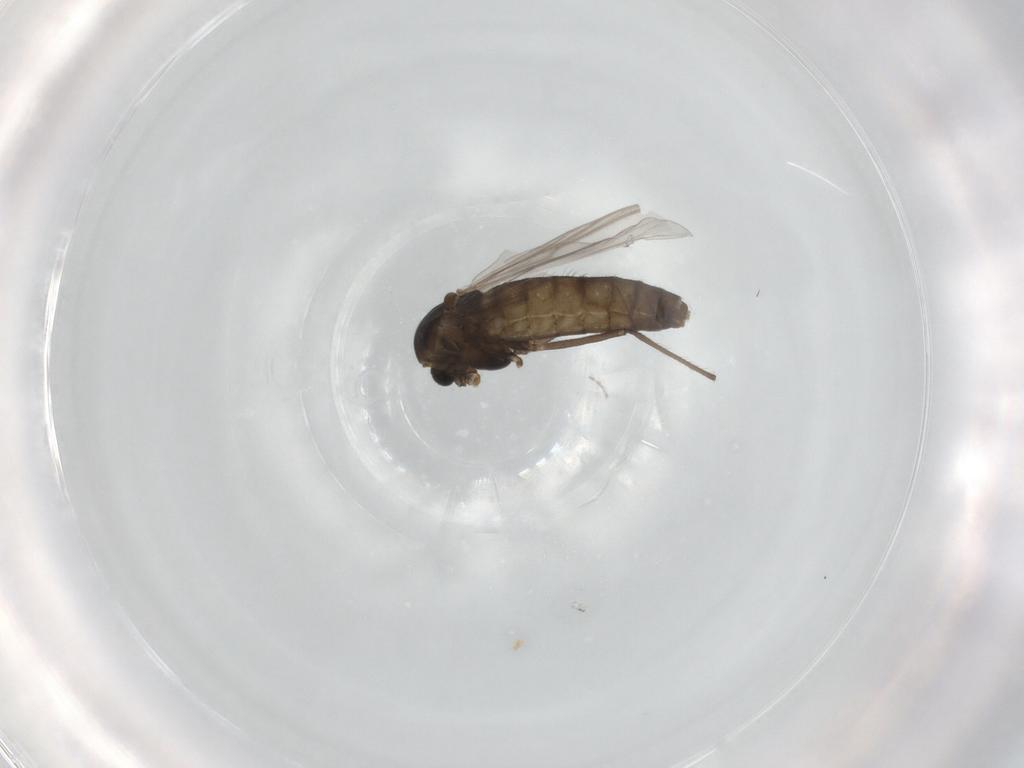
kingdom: Animalia
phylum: Arthropoda
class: Insecta
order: Diptera
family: Chironomidae
